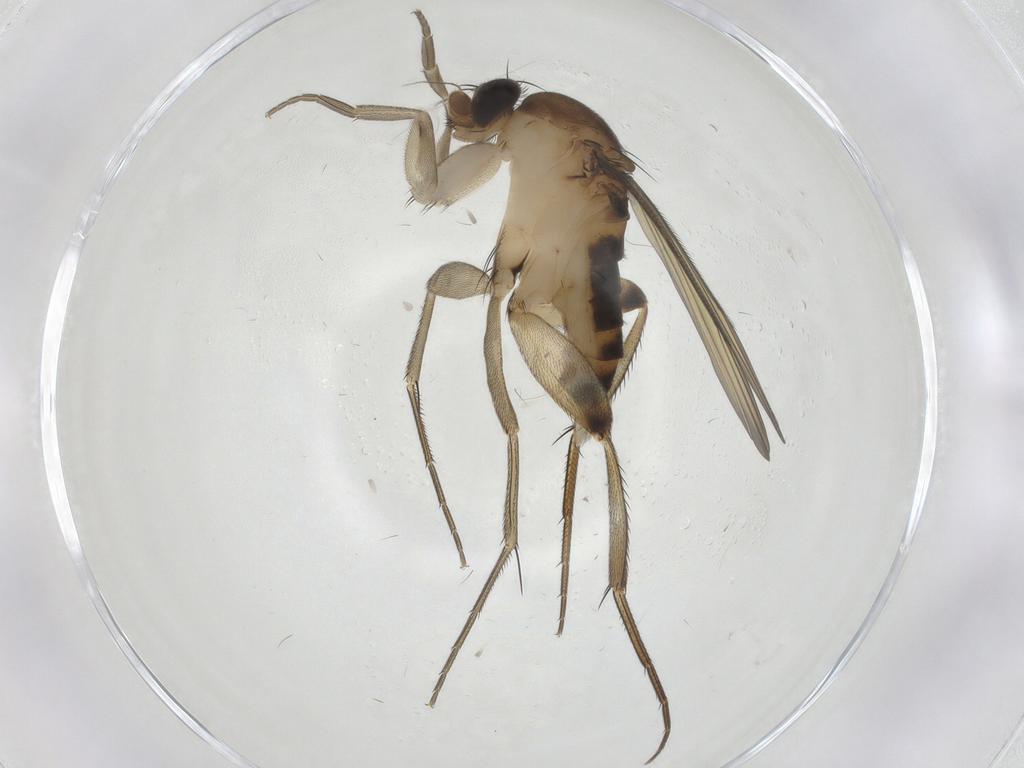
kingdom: Animalia
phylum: Arthropoda
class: Insecta
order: Diptera
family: Phoridae
